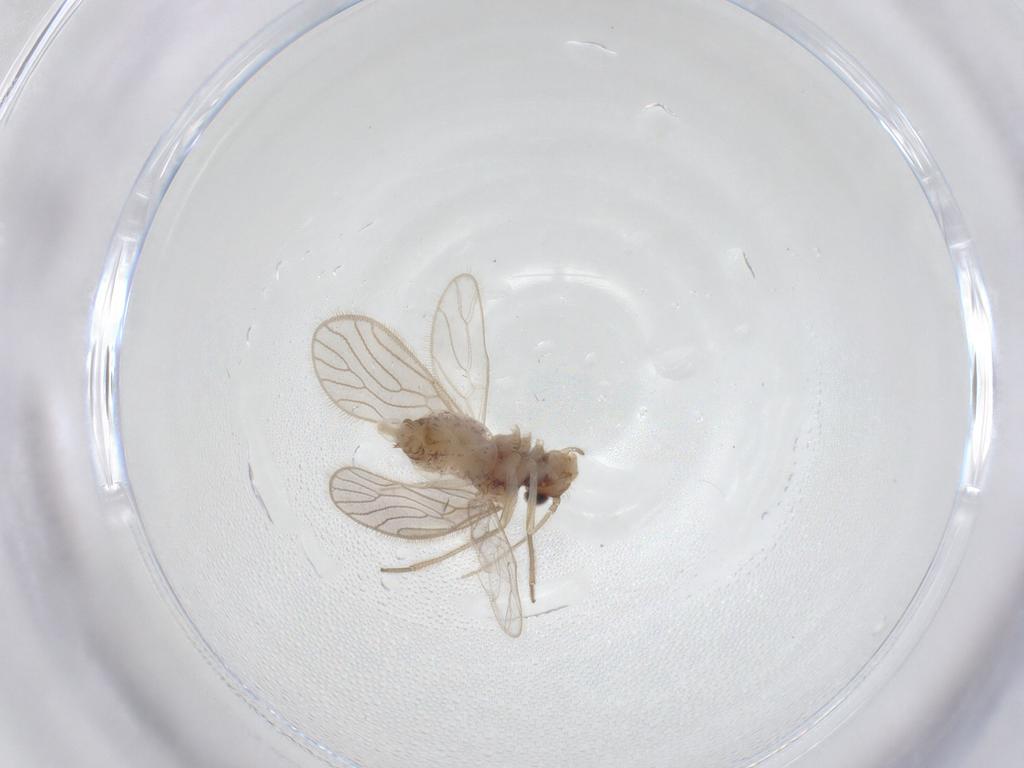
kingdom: Animalia
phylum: Arthropoda
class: Insecta
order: Psocodea
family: Dolabellopsocidae
